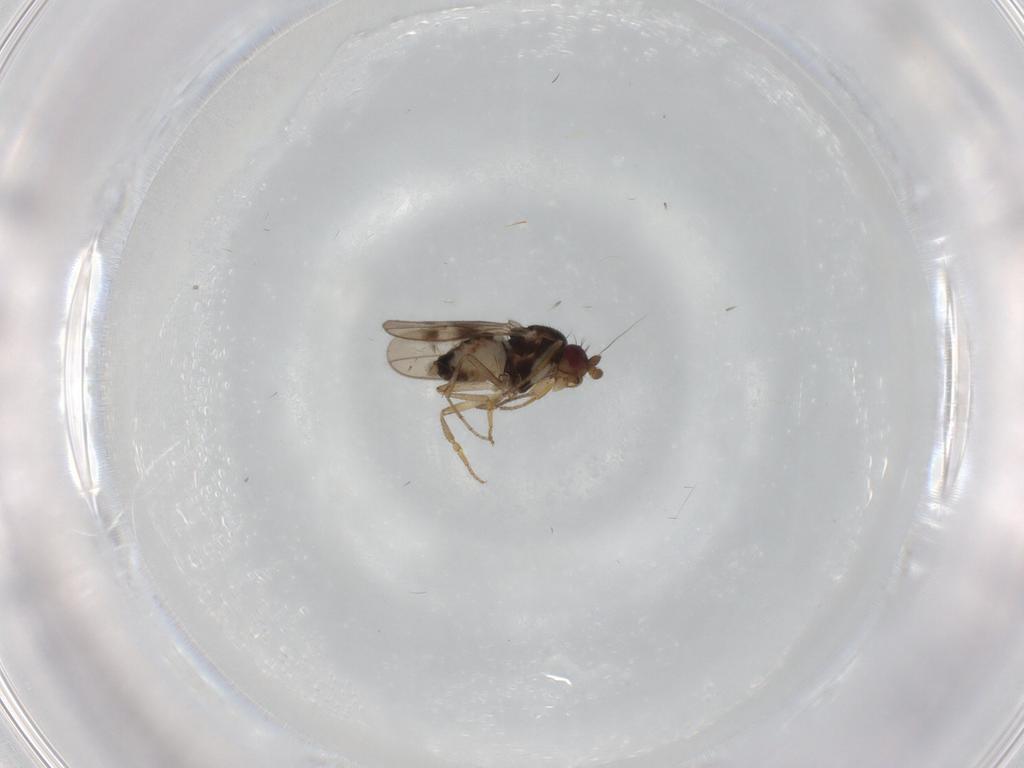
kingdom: Animalia
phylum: Arthropoda
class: Insecta
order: Diptera
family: Sphaeroceridae
